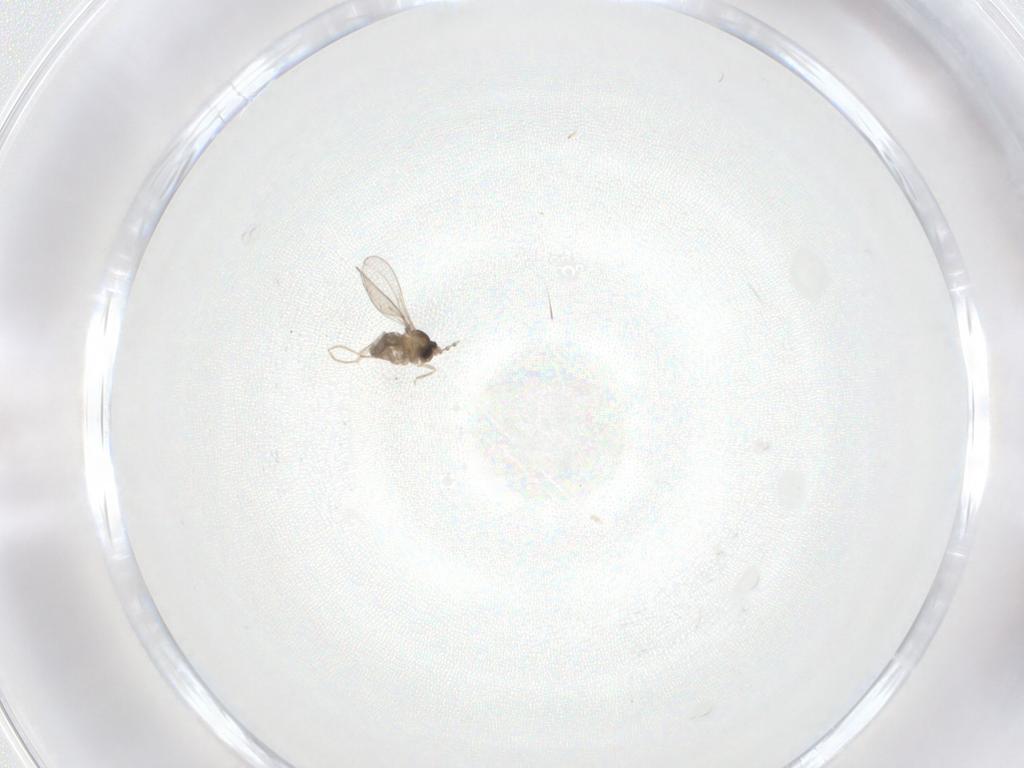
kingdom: Animalia
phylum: Arthropoda
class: Insecta
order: Diptera
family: Cecidomyiidae
